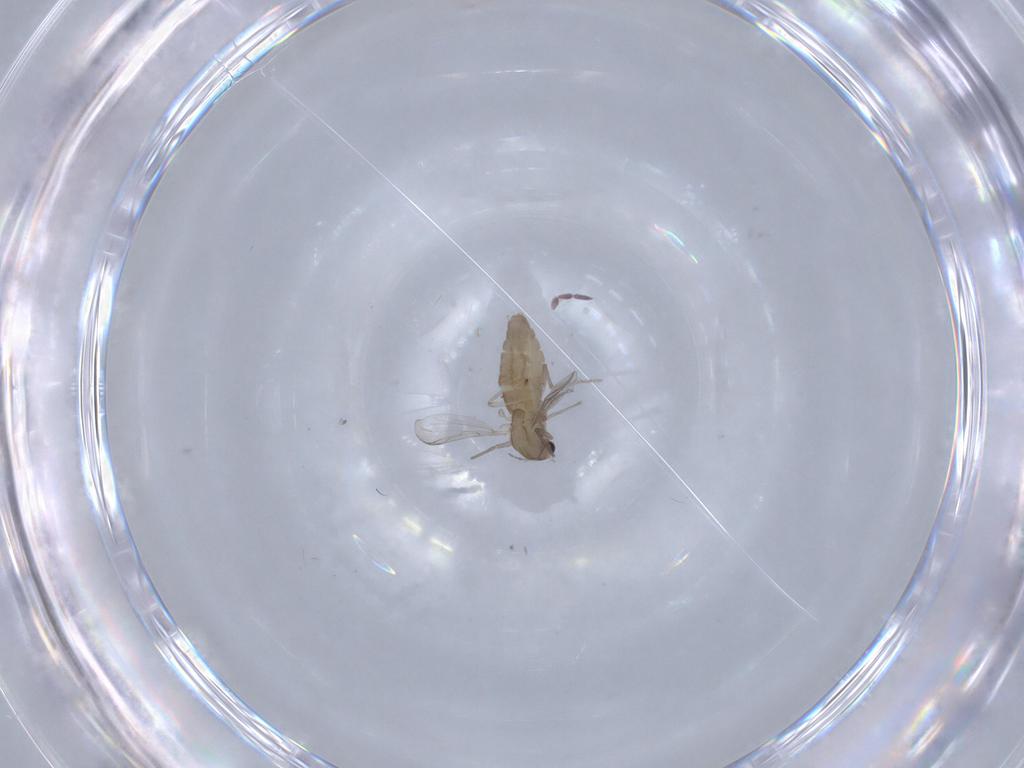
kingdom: Animalia
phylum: Arthropoda
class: Insecta
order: Diptera
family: Chironomidae
